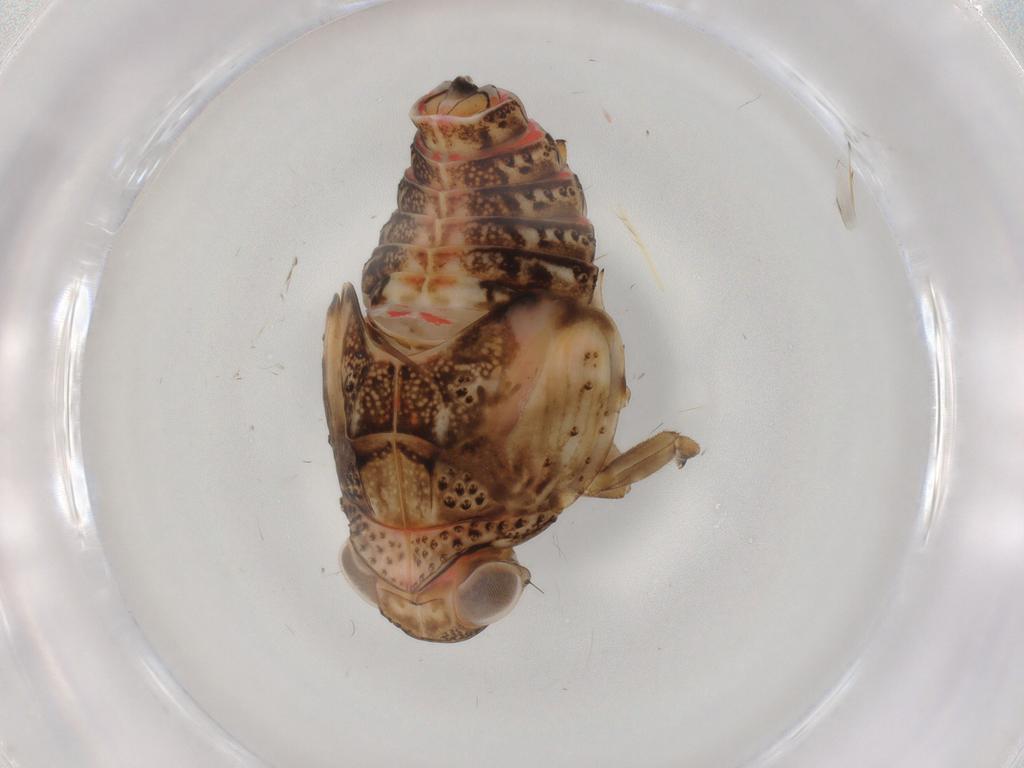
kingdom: Animalia
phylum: Arthropoda
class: Insecta
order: Hemiptera
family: Issidae
